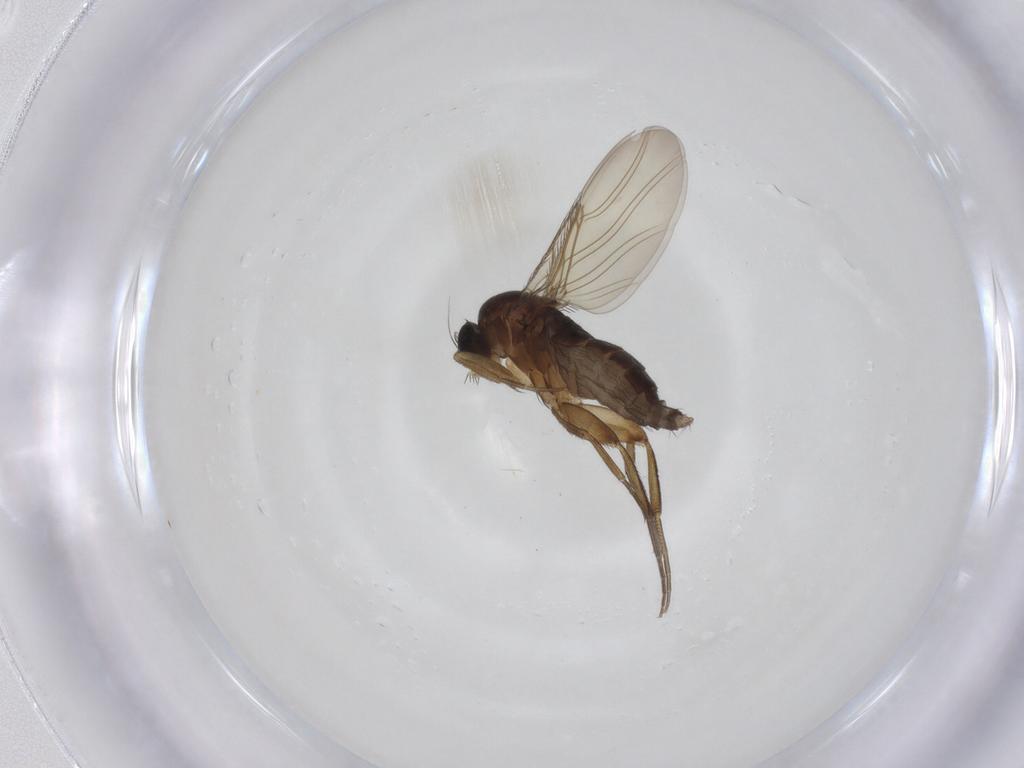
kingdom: Animalia
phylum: Arthropoda
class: Insecta
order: Diptera
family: Phoridae
